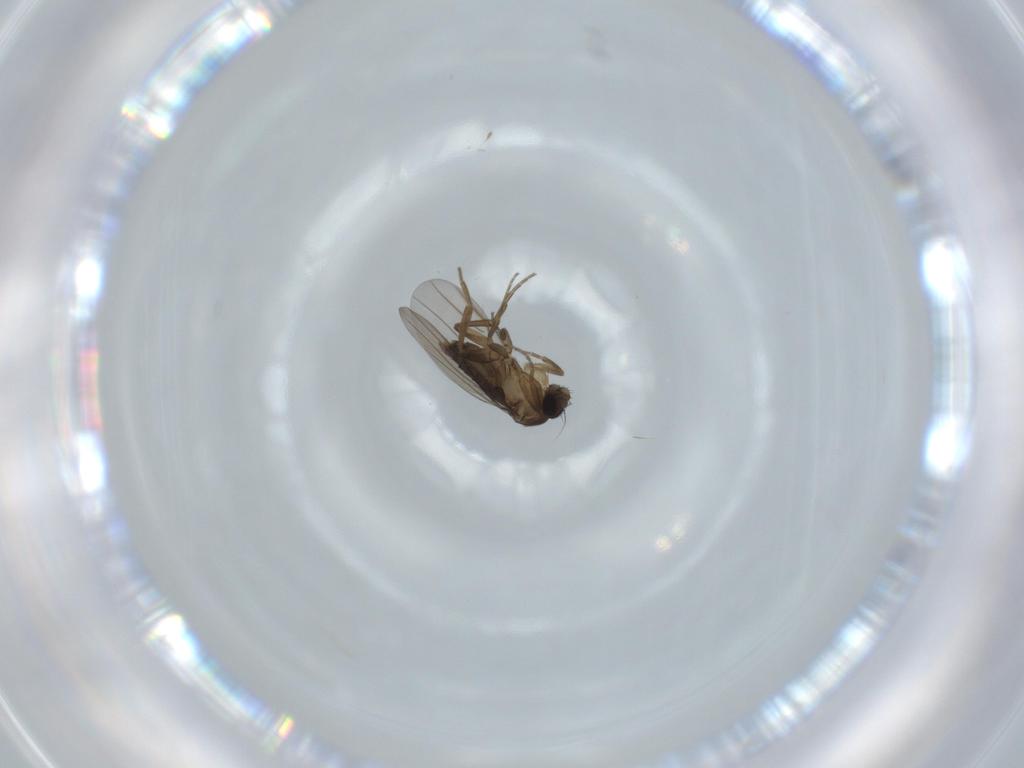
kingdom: Animalia
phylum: Arthropoda
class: Insecta
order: Diptera
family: Phoridae
